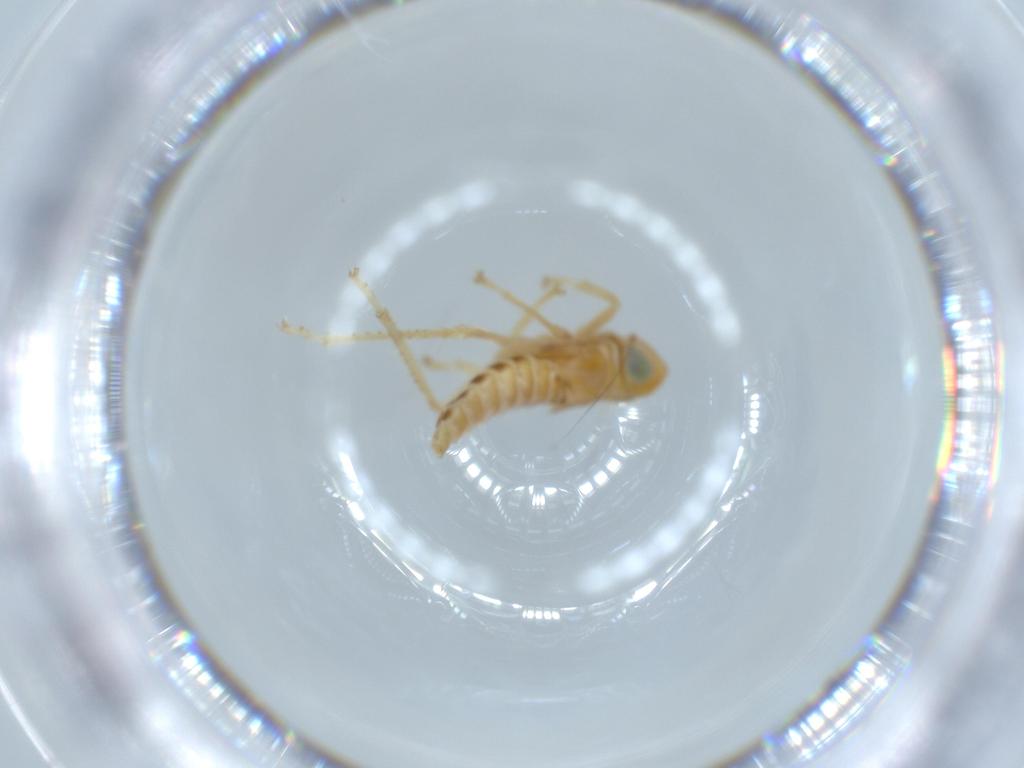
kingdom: Animalia
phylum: Arthropoda
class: Insecta
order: Hemiptera
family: Cicadellidae
